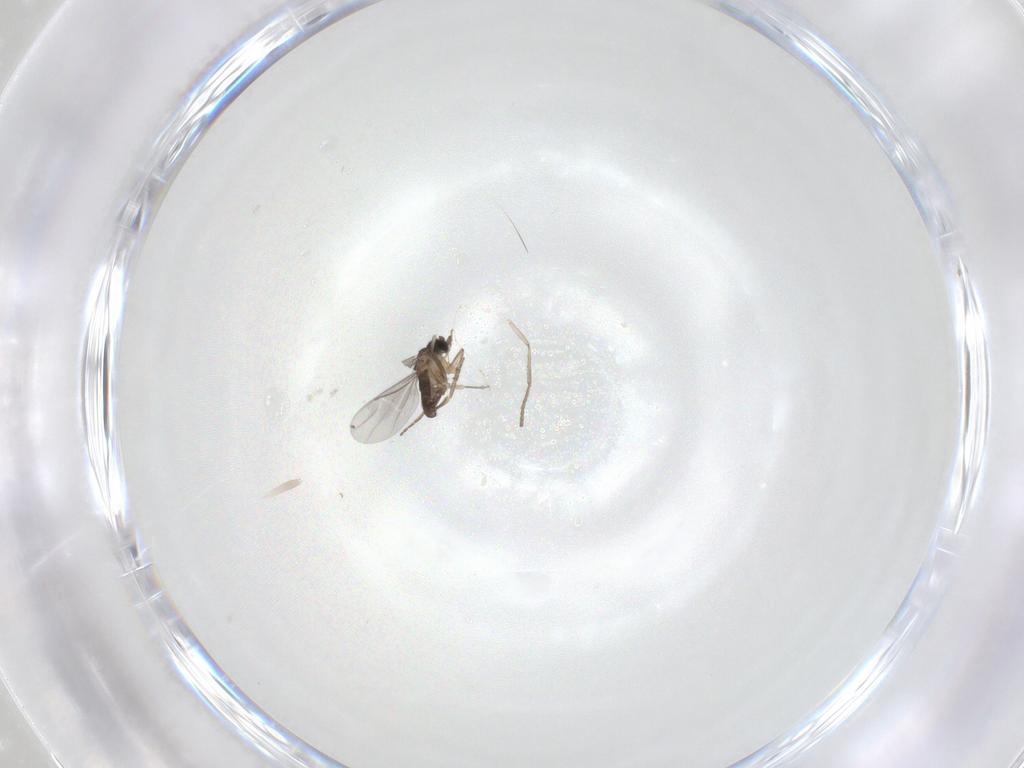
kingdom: Animalia
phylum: Arthropoda
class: Insecta
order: Diptera
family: Psychodidae
